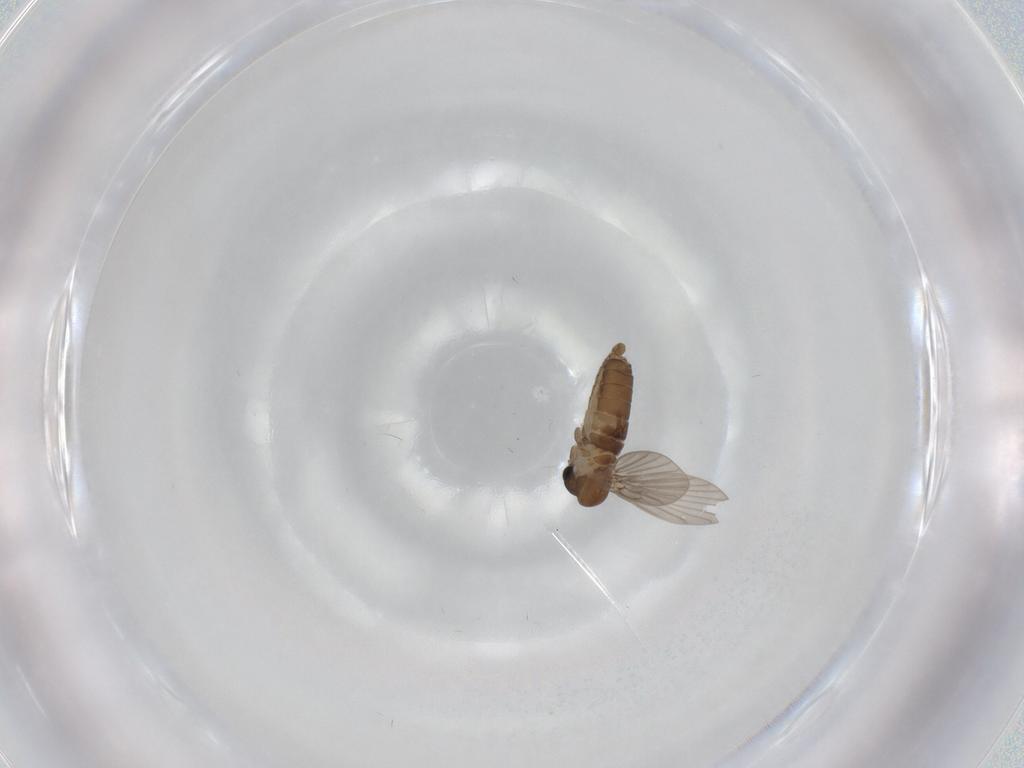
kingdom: Animalia
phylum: Arthropoda
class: Insecta
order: Diptera
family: Psychodidae
